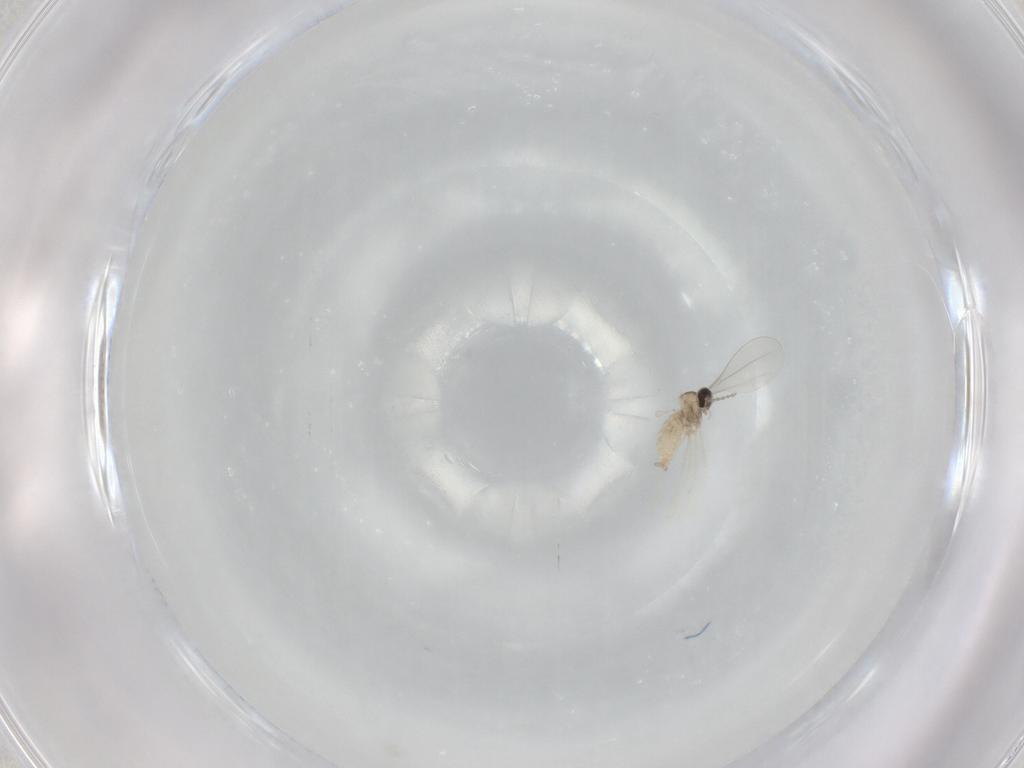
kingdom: Animalia
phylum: Arthropoda
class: Insecta
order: Diptera
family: Cecidomyiidae
